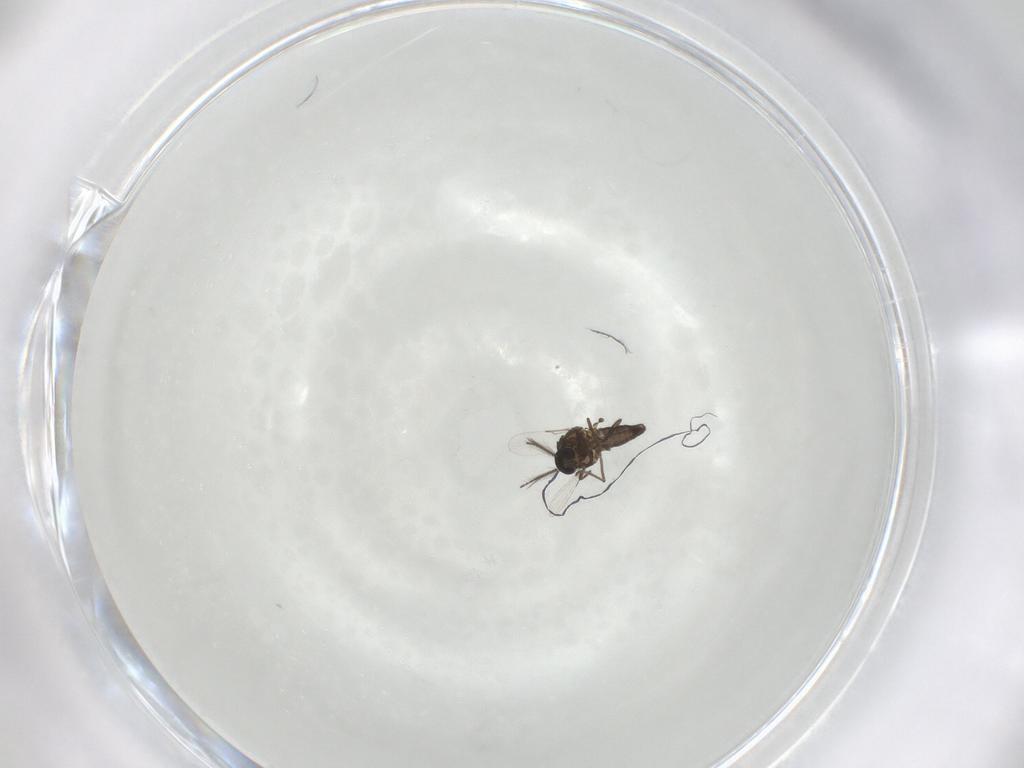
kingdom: Animalia
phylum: Arthropoda
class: Insecta
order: Diptera
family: Ceratopogonidae
